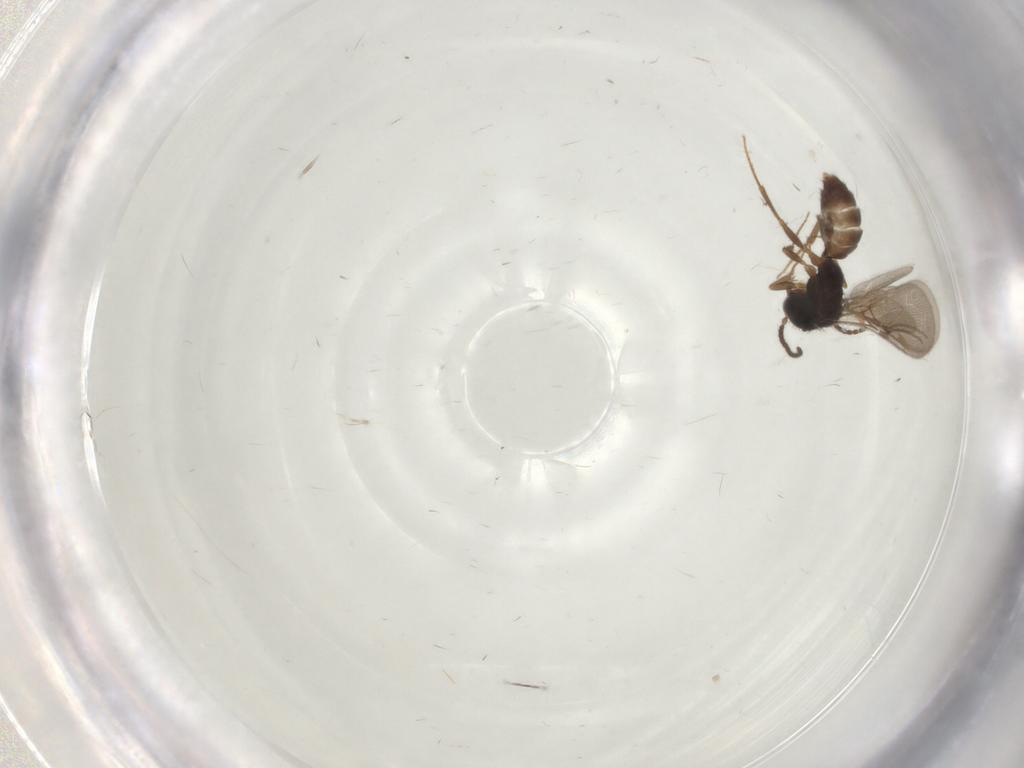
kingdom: Animalia
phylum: Arthropoda
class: Insecta
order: Hymenoptera
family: Bethylidae
